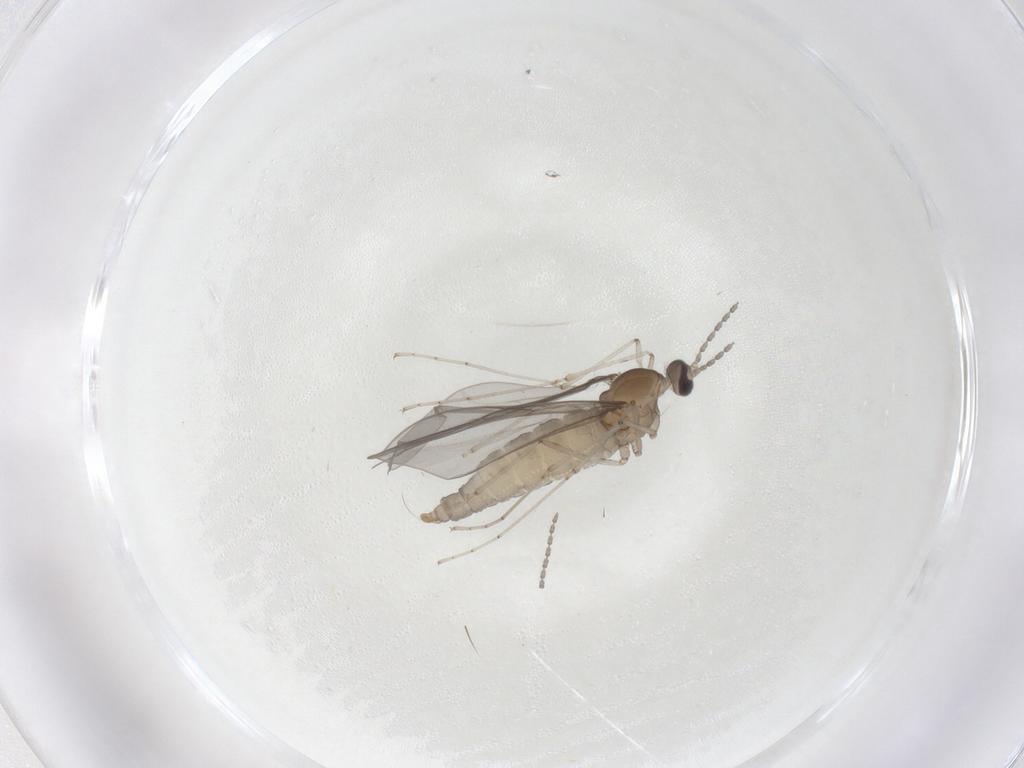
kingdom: Animalia
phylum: Arthropoda
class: Insecta
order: Diptera
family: Cecidomyiidae
